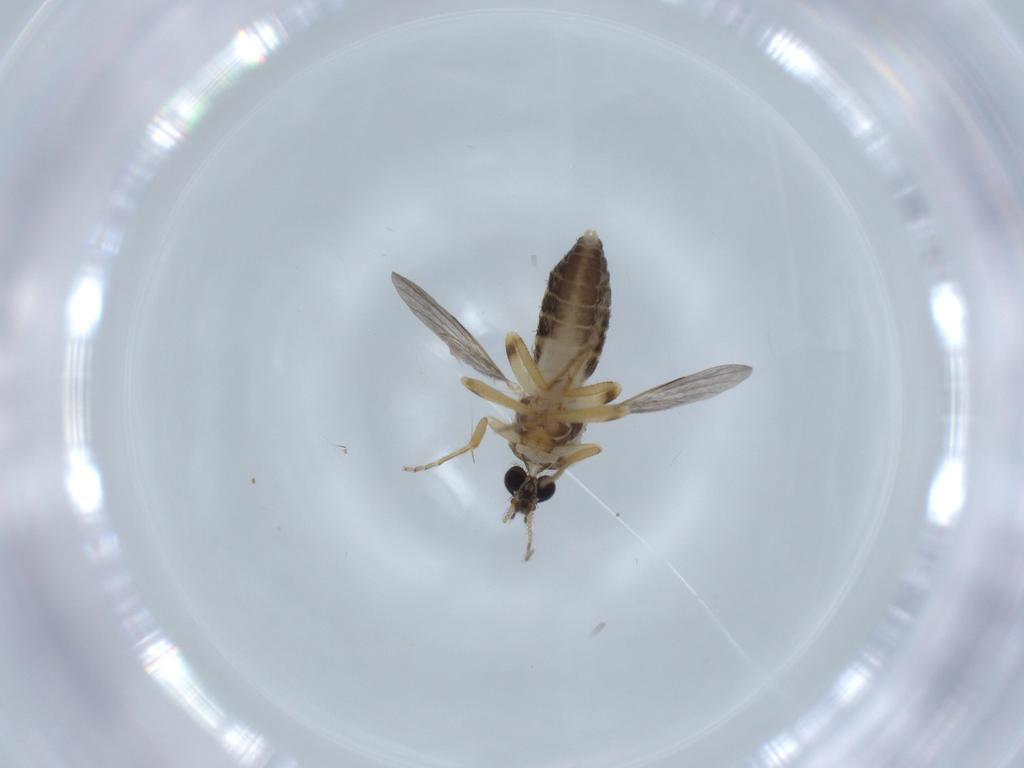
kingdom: Animalia
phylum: Arthropoda
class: Insecta
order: Diptera
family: Ceratopogonidae
